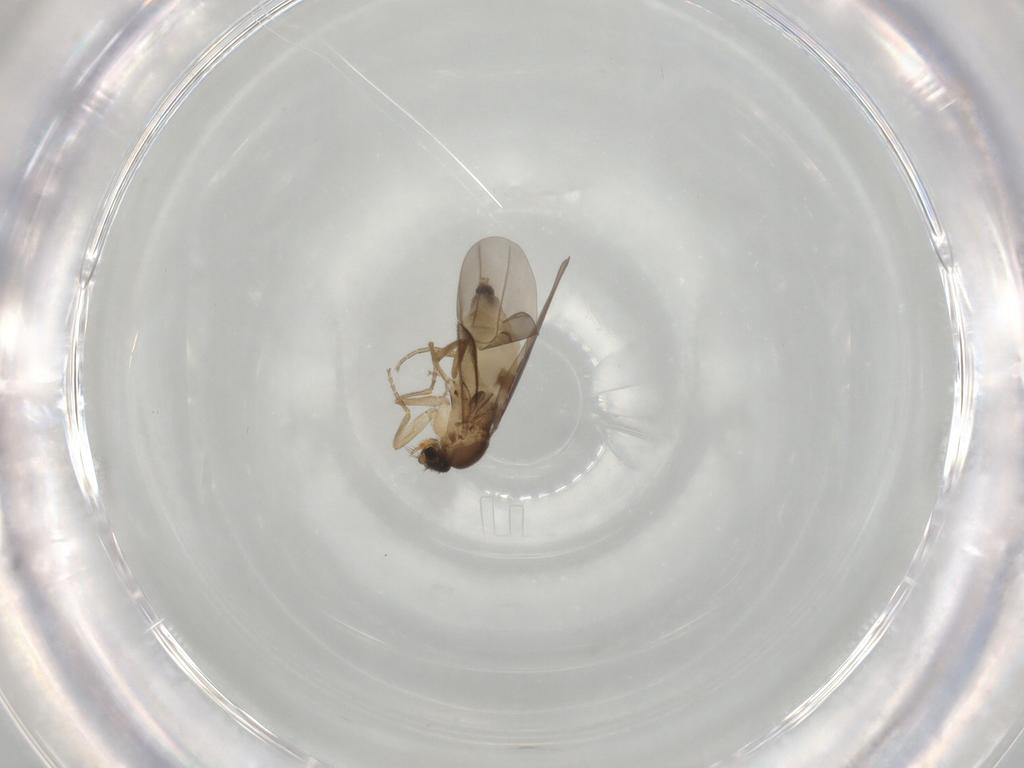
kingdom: Animalia
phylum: Arthropoda
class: Insecta
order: Diptera
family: Phoridae
